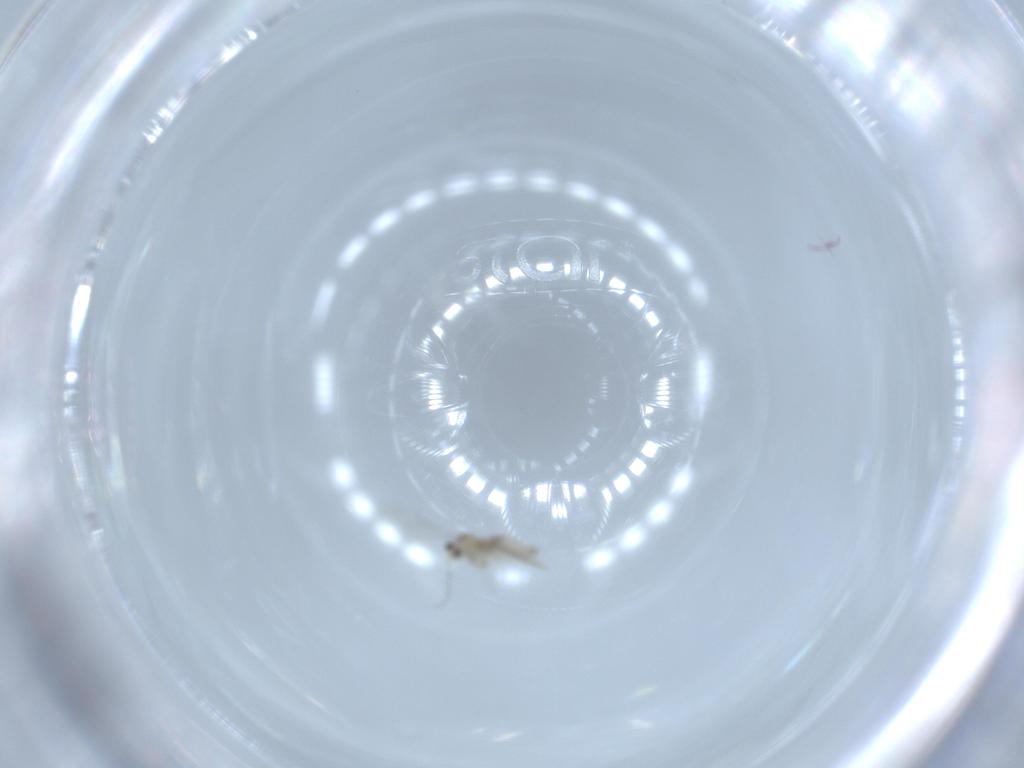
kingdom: Animalia
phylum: Arthropoda
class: Insecta
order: Diptera
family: Cecidomyiidae
